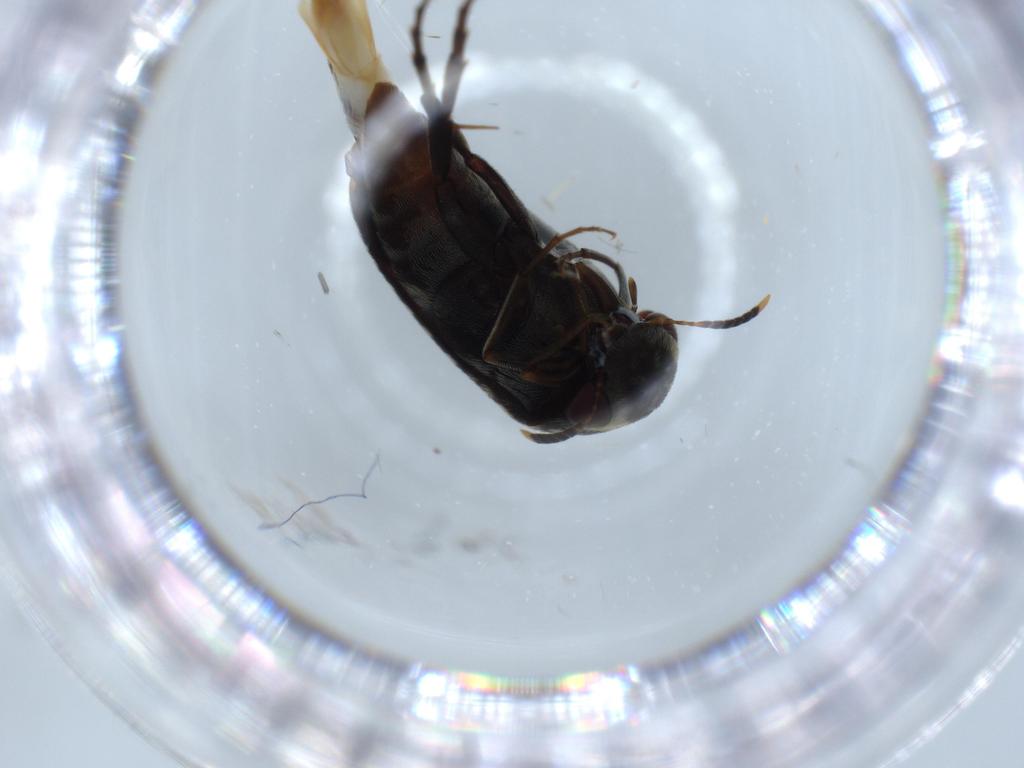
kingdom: Animalia
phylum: Arthropoda
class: Insecta
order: Coleoptera
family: Mordellidae
